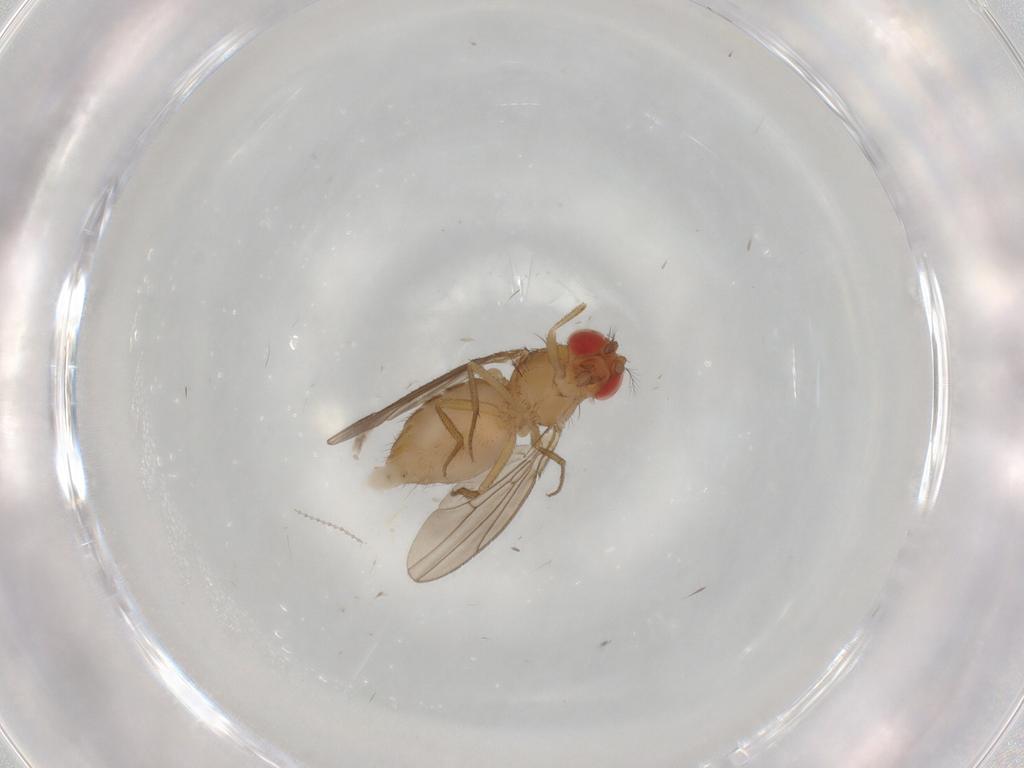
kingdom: Animalia
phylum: Arthropoda
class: Insecta
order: Diptera
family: Drosophilidae
